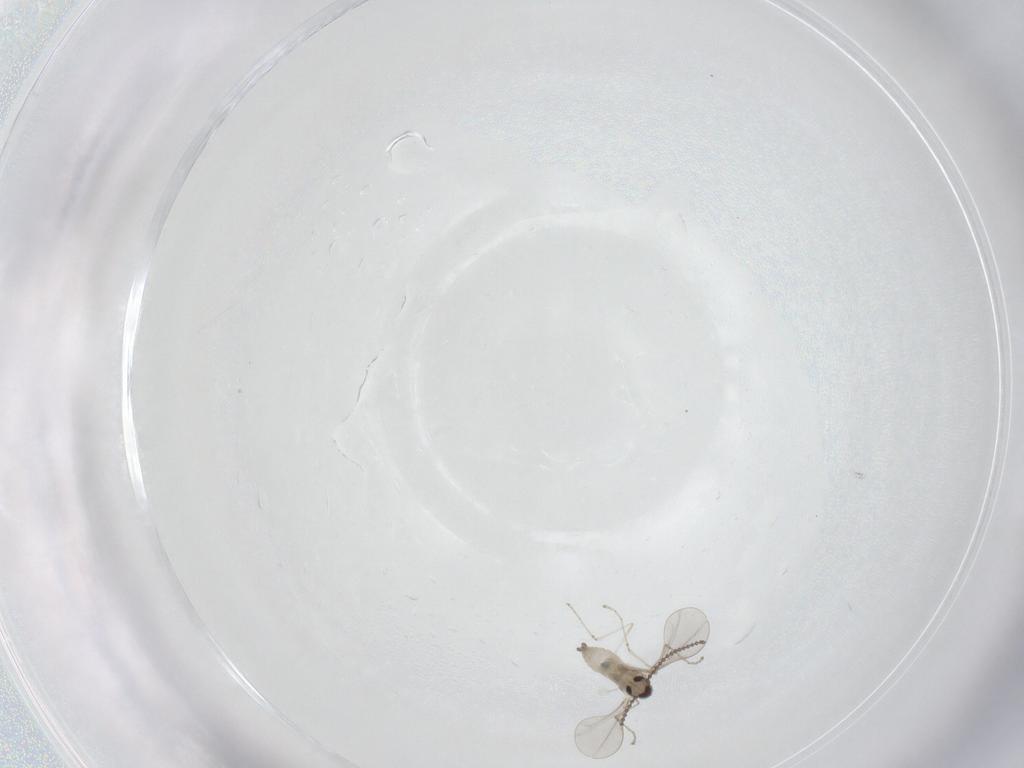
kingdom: Animalia
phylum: Arthropoda
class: Insecta
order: Diptera
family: Cecidomyiidae
